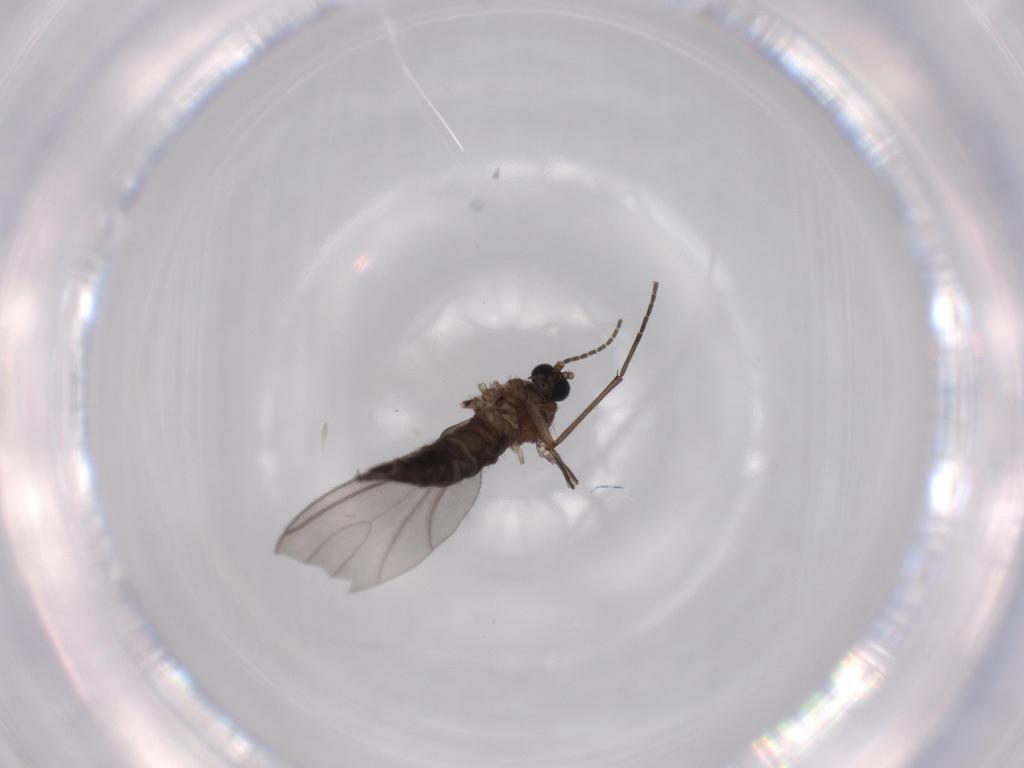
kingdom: Animalia
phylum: Arthropoda
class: Insecta
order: Diptera
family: Sciaridae
